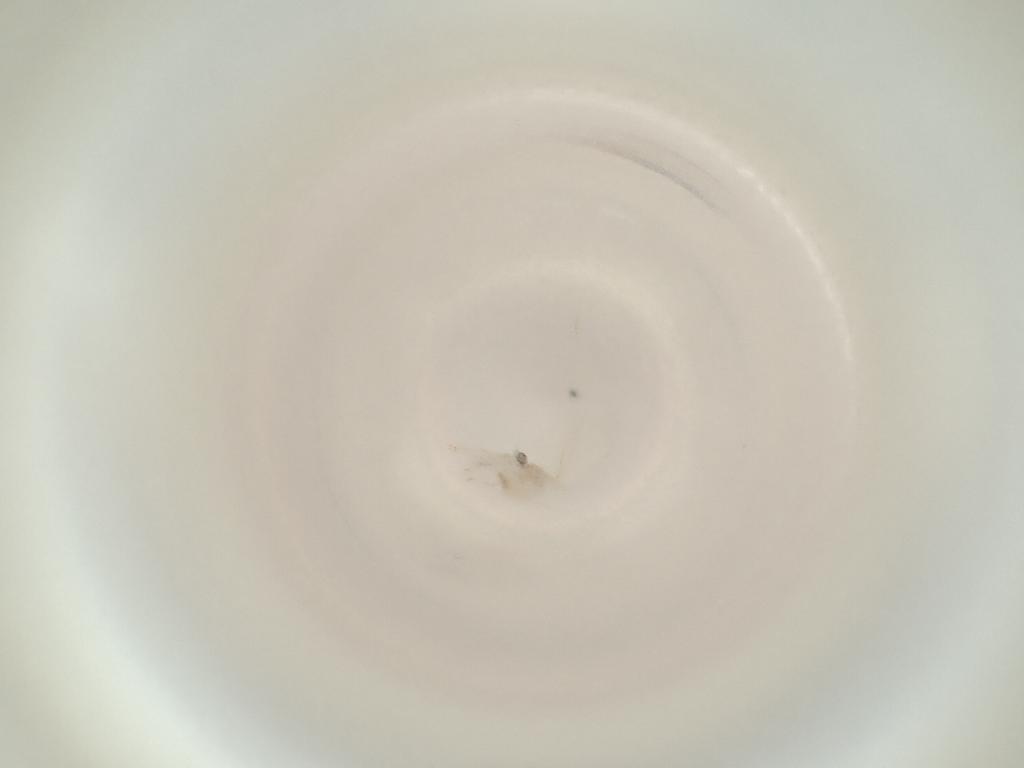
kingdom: Animalia
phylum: Arthropoda
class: Insecta
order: Diptera
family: Cecidomyiidae
